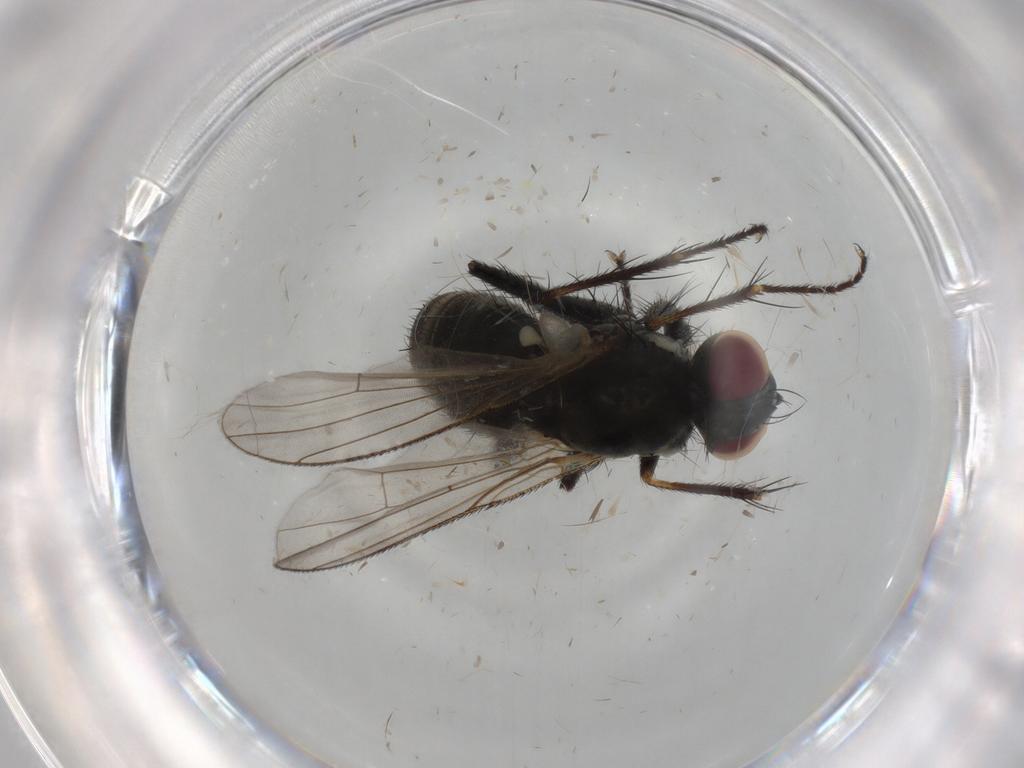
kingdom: Animalia
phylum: Arthropoda
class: Insecta
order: Diptera
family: Cecidomyiidae
